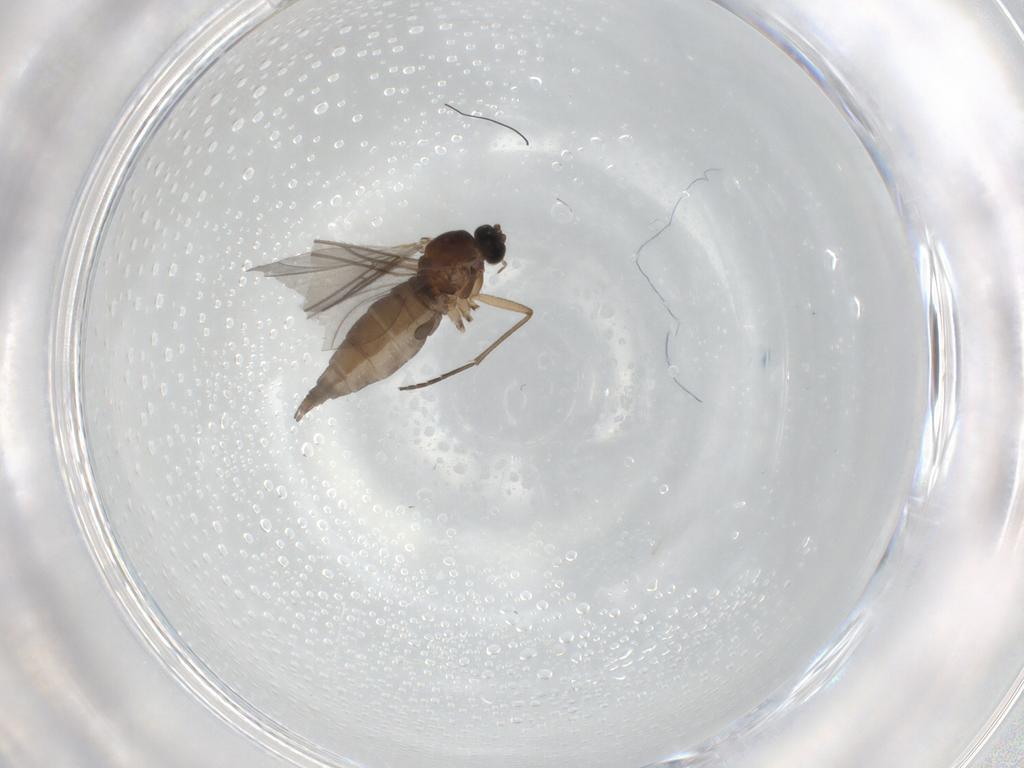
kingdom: Animalia
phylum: Arthropoda
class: Insecta
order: Diptera
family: Sciaridae
